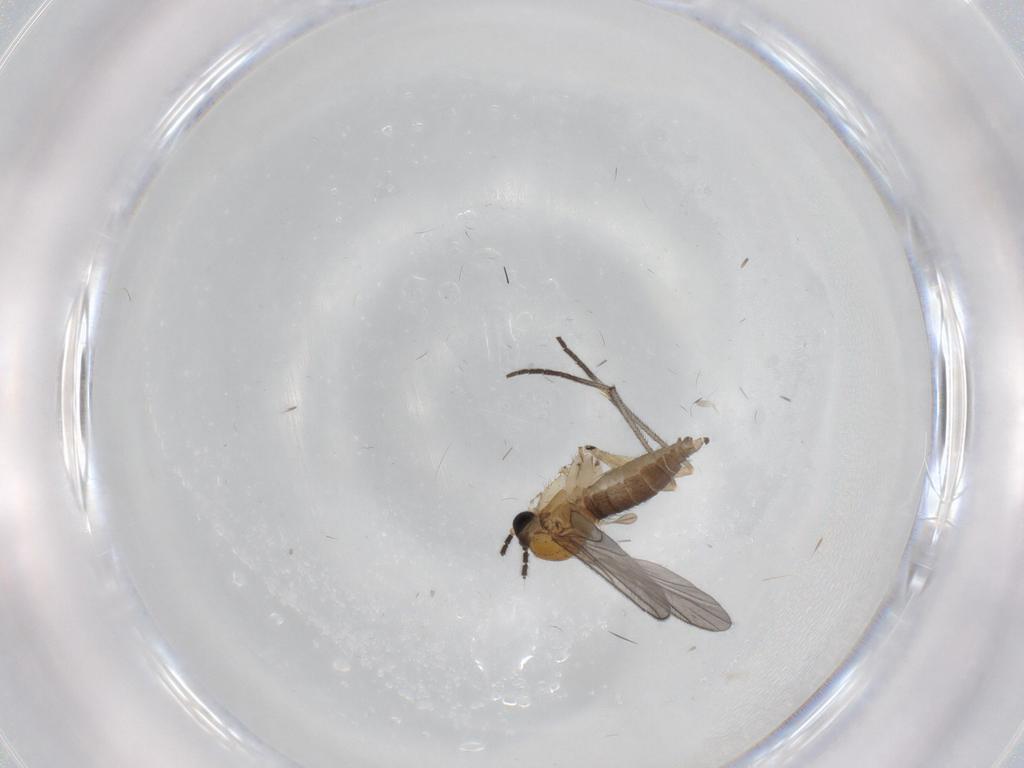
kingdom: Animalia
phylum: Arthropoda
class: Insecta
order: Diptera
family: Sciaridae
